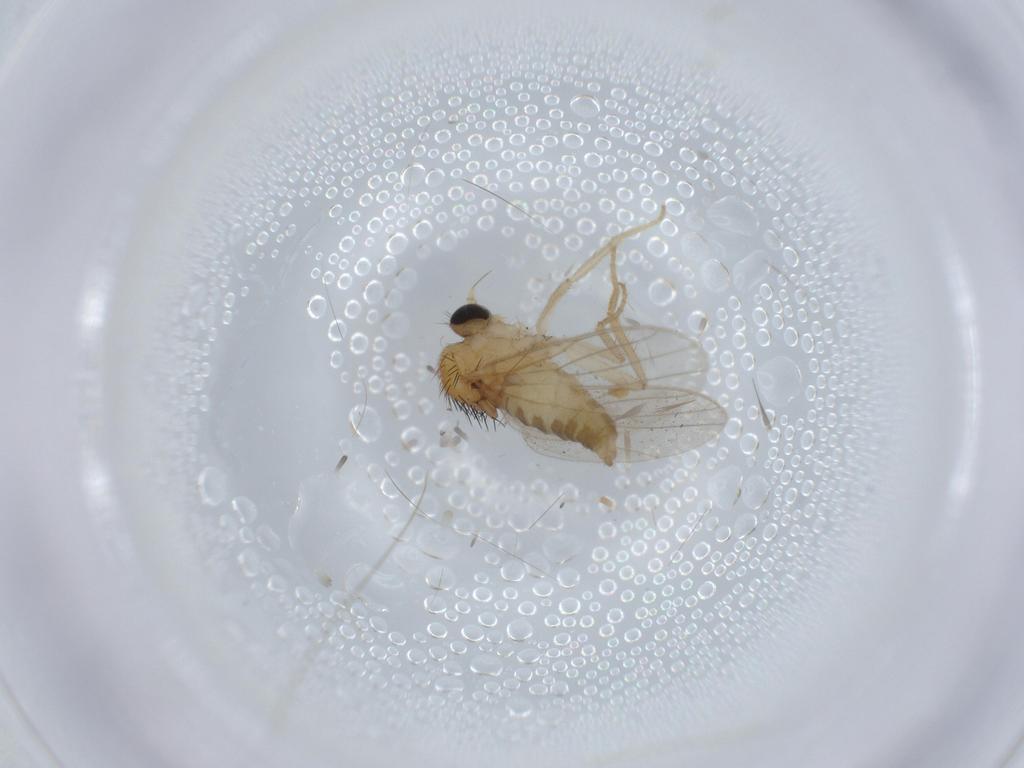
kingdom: Animalia
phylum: Arthropoda
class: Insecta
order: Diptera
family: Hybotidae
